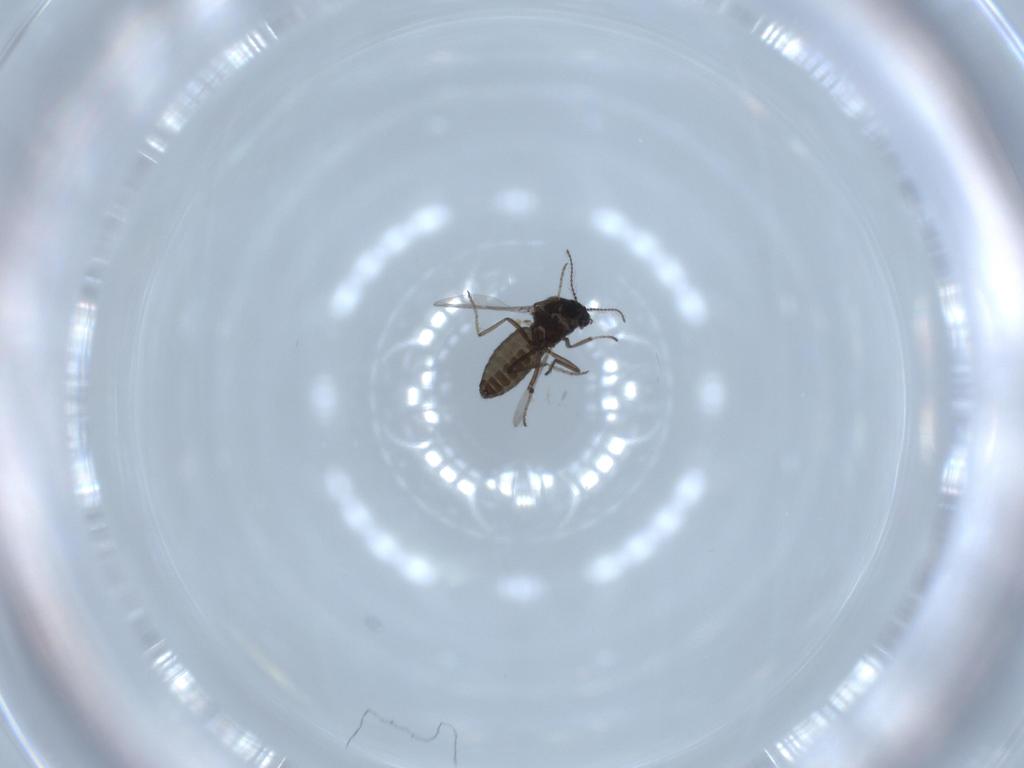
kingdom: Animalia
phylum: Arthropoda
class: Insecta
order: Diptera
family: Ceratopogonidae
